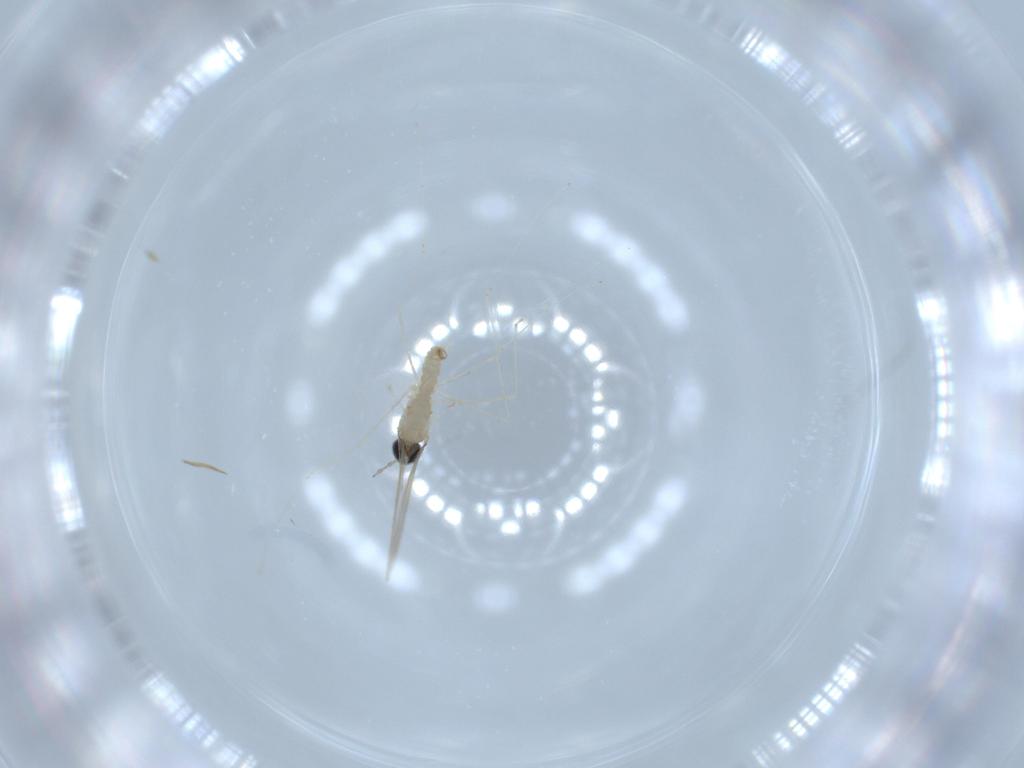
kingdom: Animalia
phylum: Arthropoda
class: Insecta
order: Diptera
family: Cecidomyiidae
